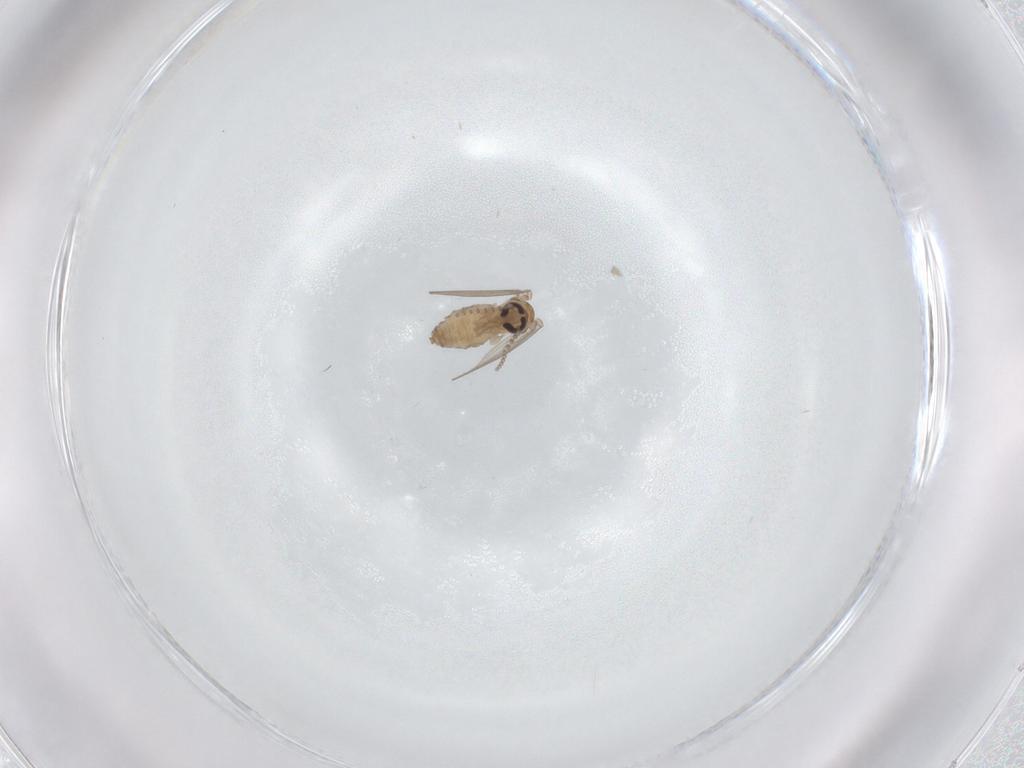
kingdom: Animalia
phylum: Arthropoda
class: Insecta
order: Diptera
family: Psychodidae
